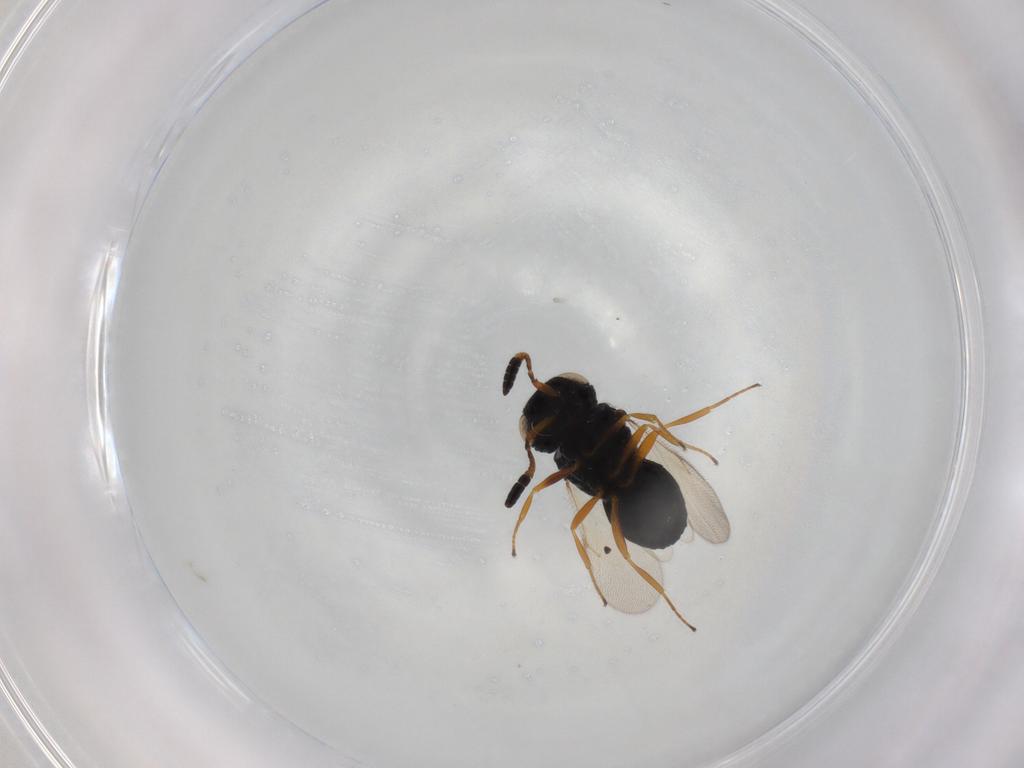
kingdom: Animalia
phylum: Arthropoda
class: Insecta
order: Hymenoptera
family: Scelionidae
